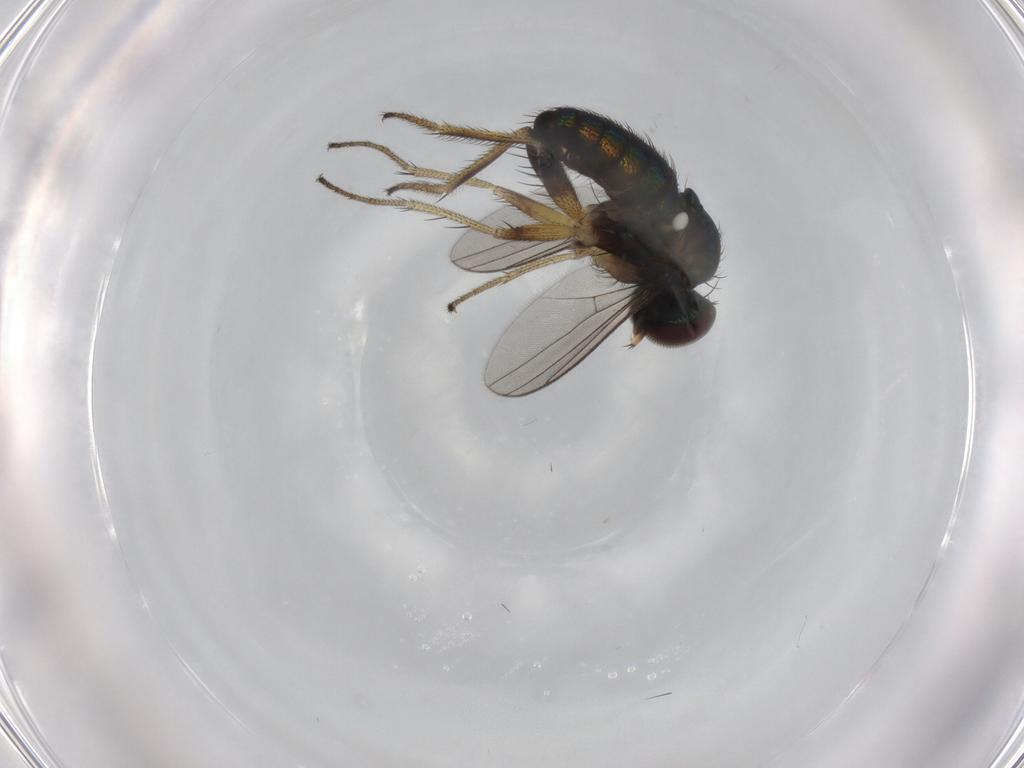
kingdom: Animalia
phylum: Arthropoda
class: Insecta
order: Diptera
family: Dolichopodidae
